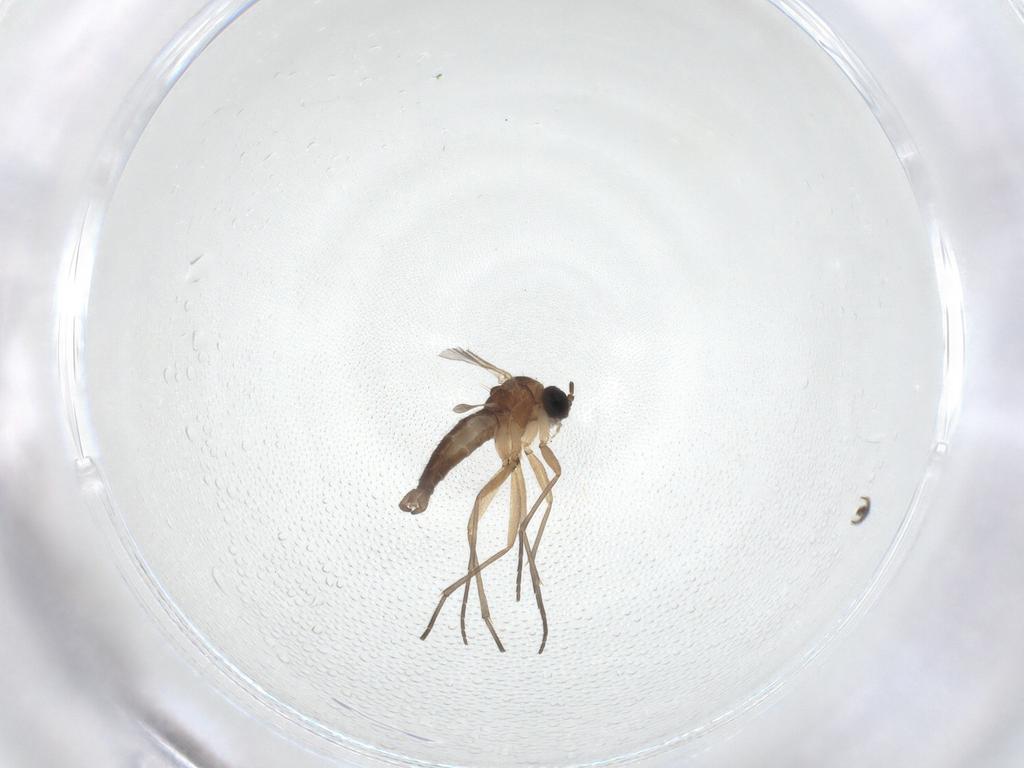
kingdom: Animalia
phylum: Arthropoda
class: Insecta
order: Diptera
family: Sciaridae
